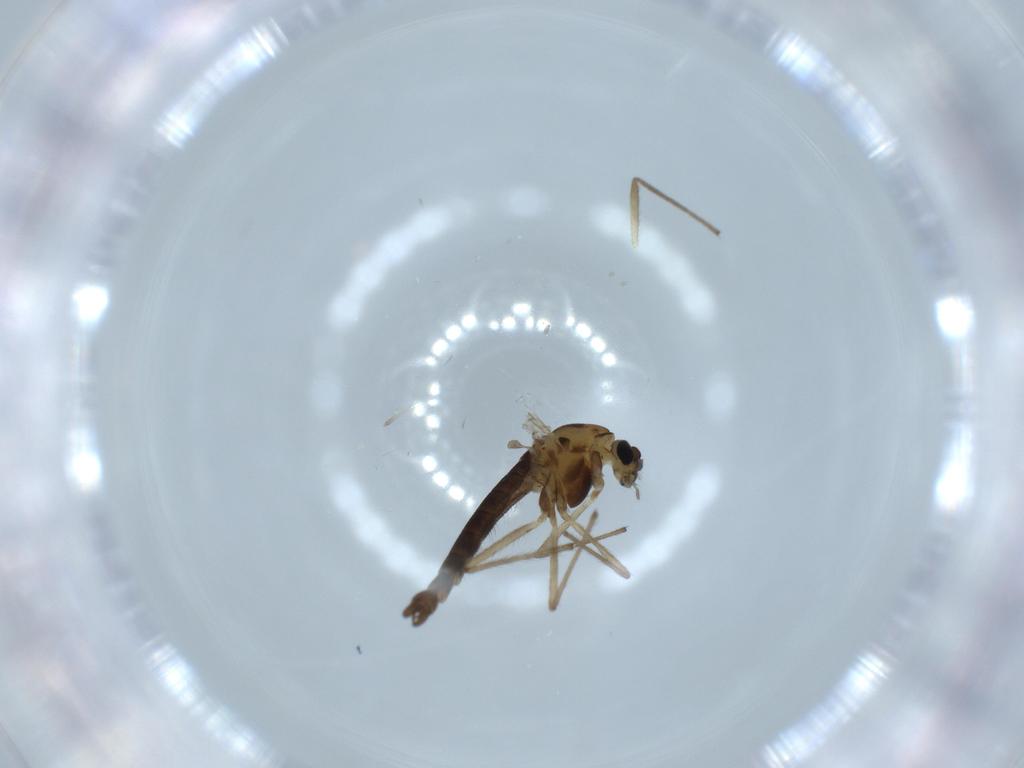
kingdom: Animalia
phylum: Arthropoda
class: Insecta
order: Diptera
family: Chironomidae
